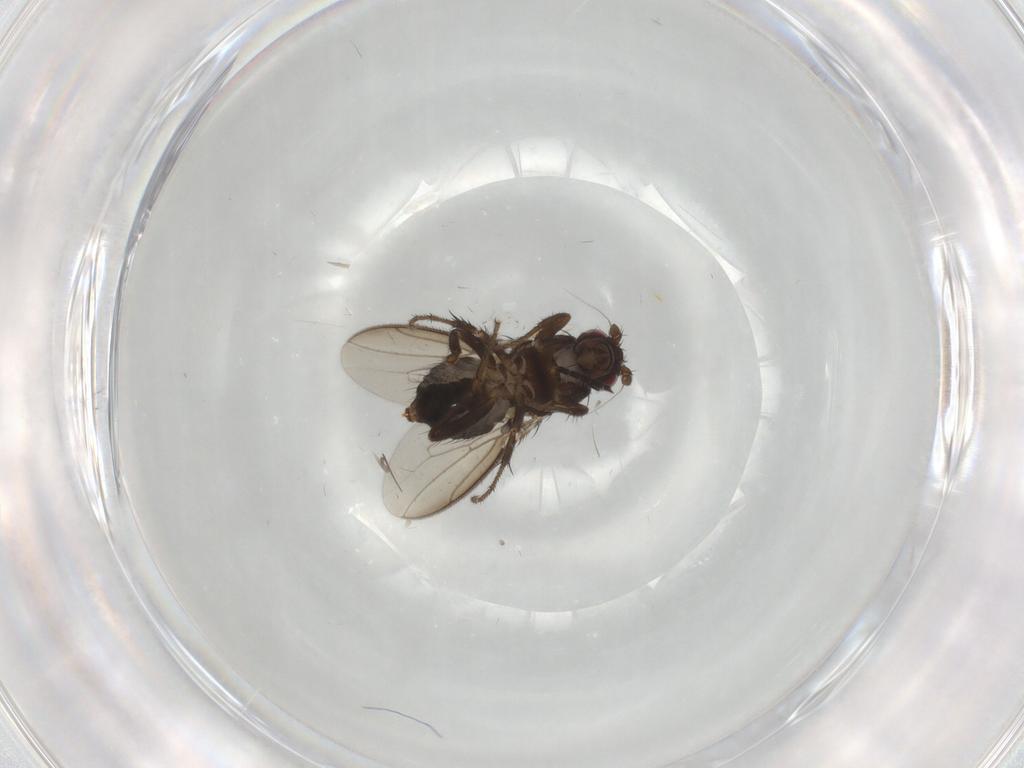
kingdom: Animalia
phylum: Arthropoda
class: Insecta
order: Diptera
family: Sphaeroceridae
